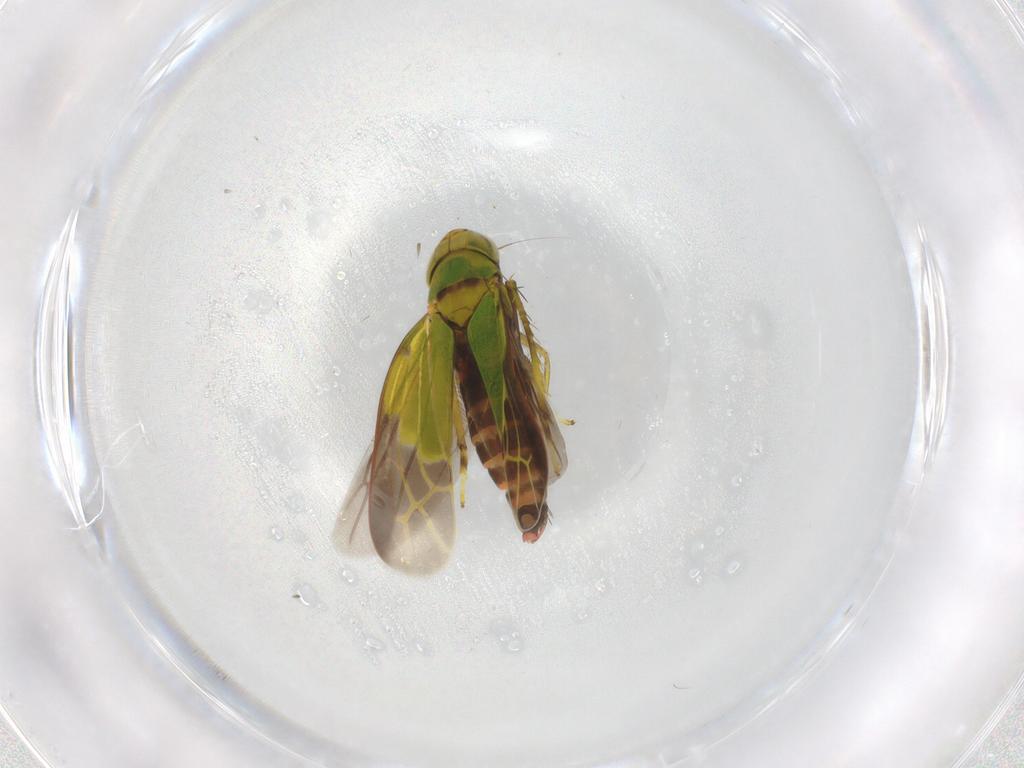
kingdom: Animalia
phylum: Arthropoda
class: Insecta
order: Hemiptera
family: Cicadellidae
